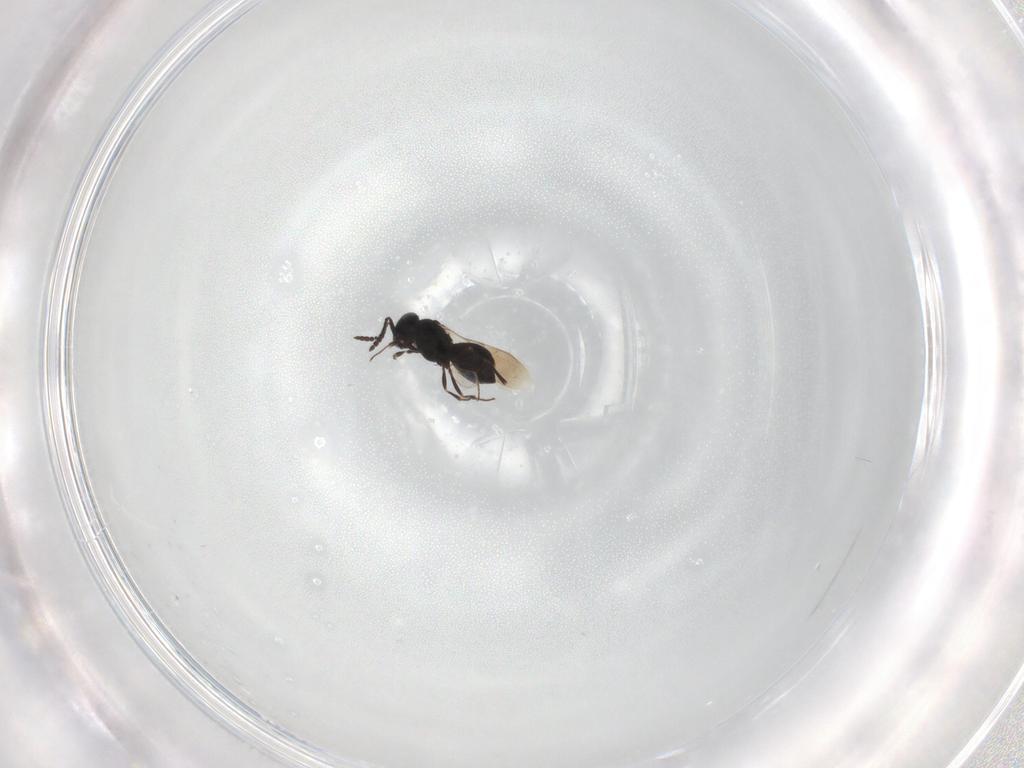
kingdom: Animalia
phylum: Arthropoda
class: Insecta
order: Hymenoptera
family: Scelionidae
